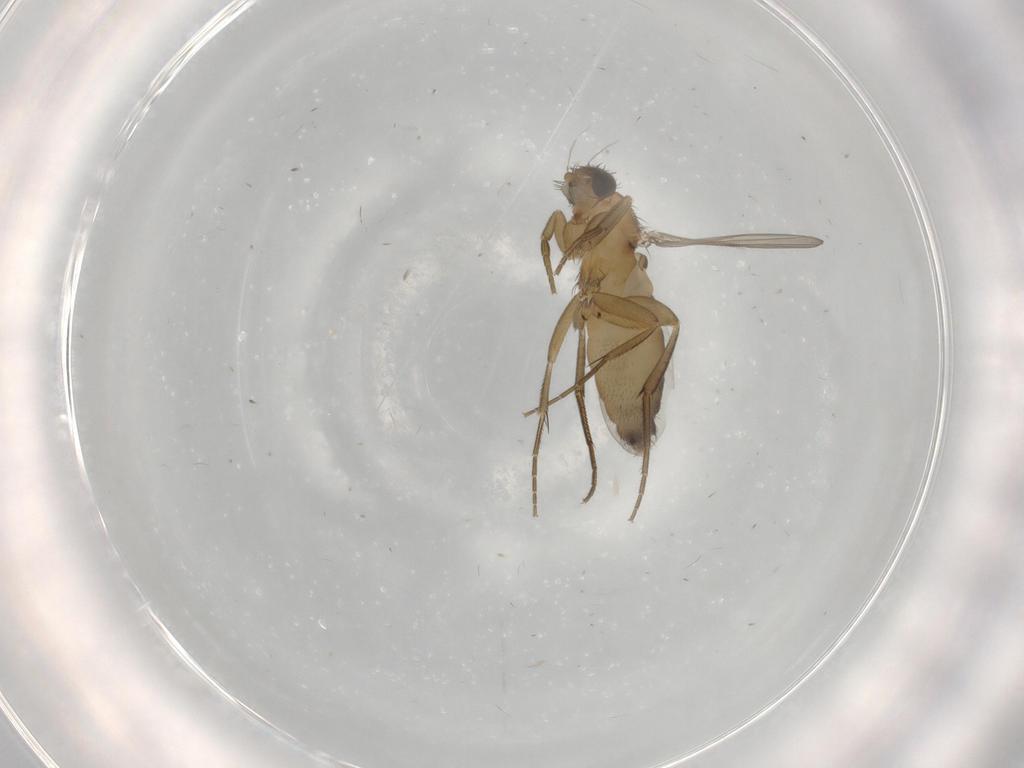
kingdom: Animalia
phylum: Arthropoda
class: Insecta
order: Diptera
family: Phoridae
